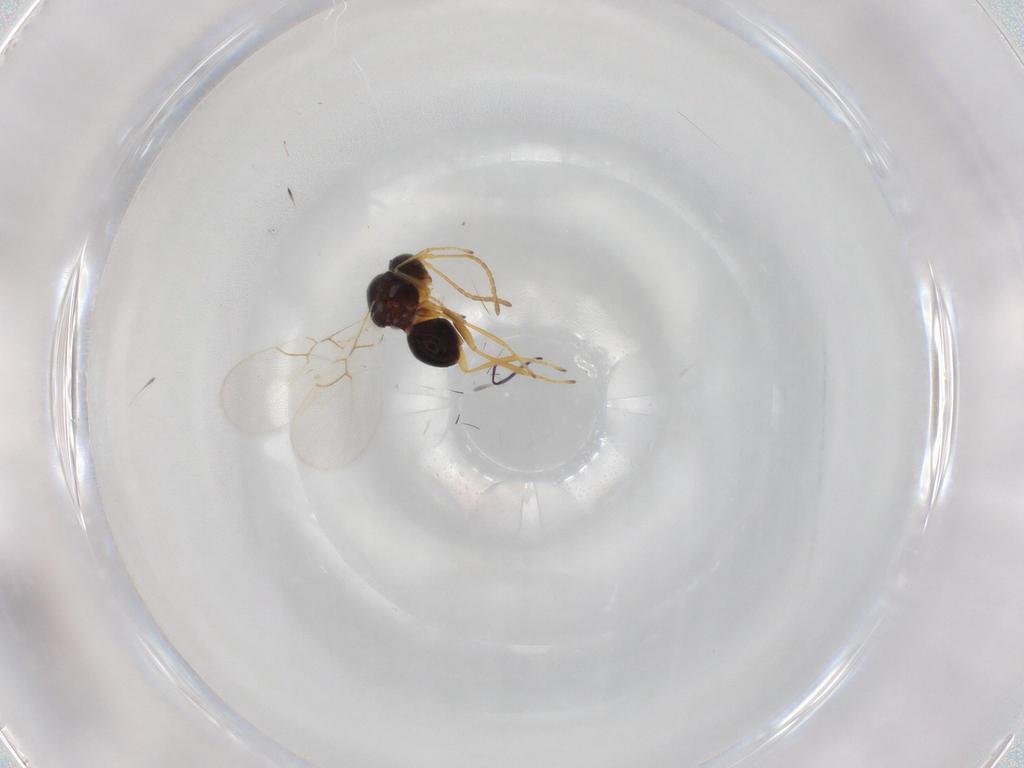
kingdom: Animalia
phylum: Arthropoda
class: Insecta
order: Hymenoptera
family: Figitidae
